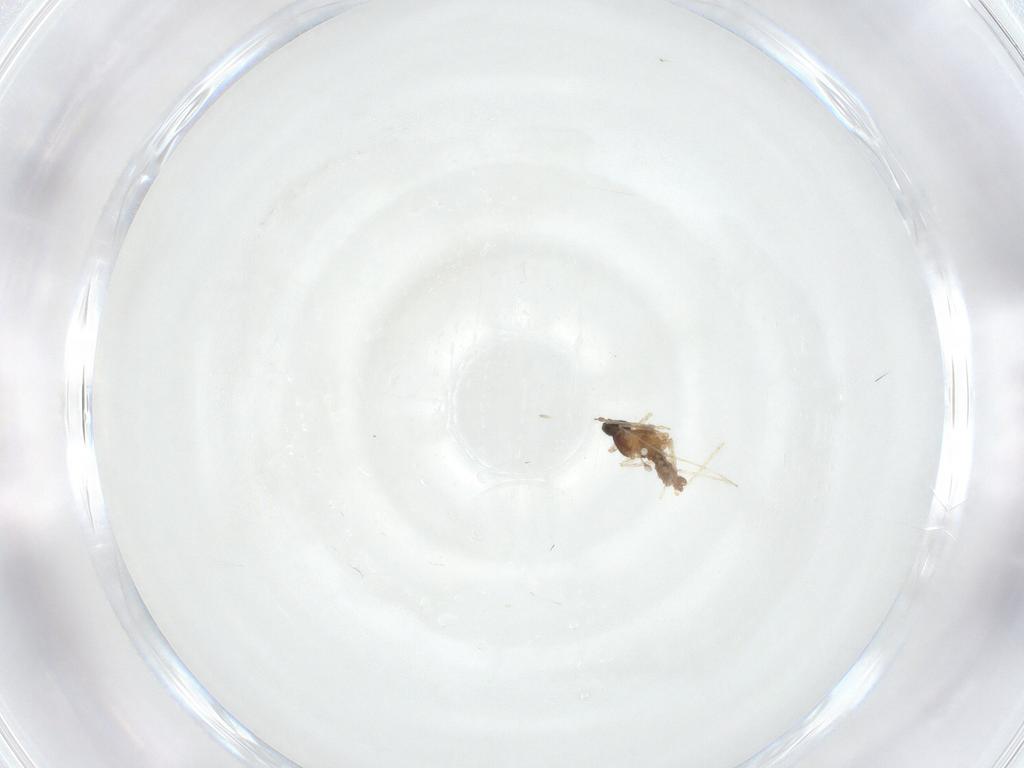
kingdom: Animalia
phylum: Arthropoda
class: Insecta
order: Diptera
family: Cecidomyiidae
